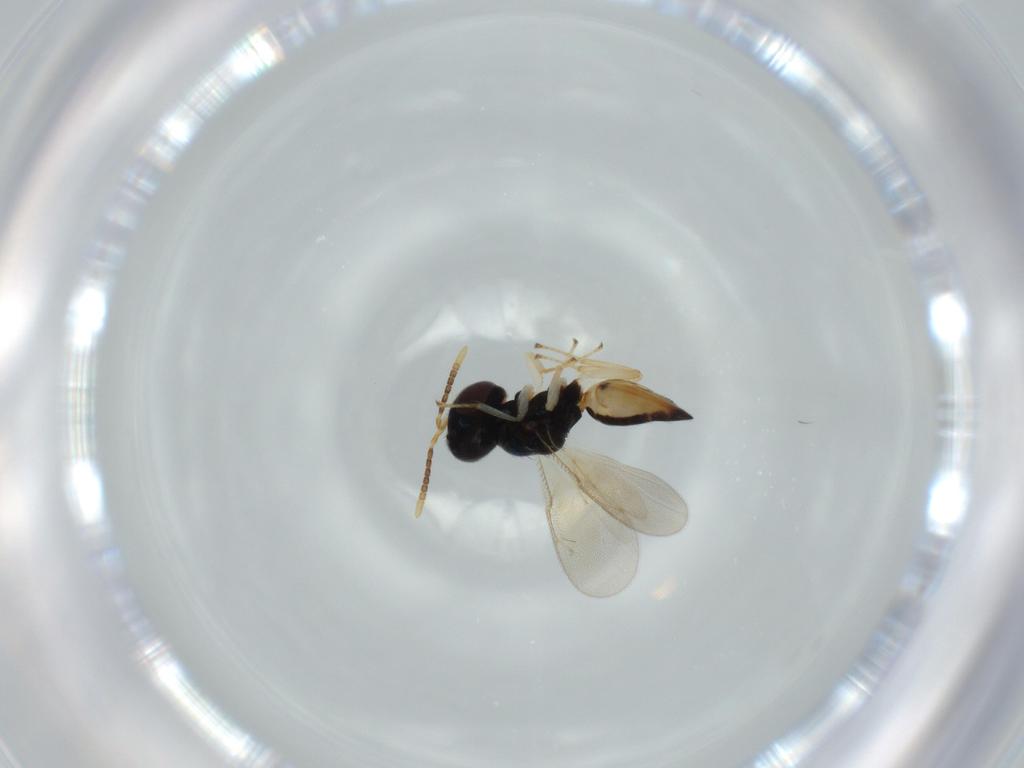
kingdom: Animalia
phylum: Arthropoda
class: Insecta
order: Hymenoptera
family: Pteromalidae
